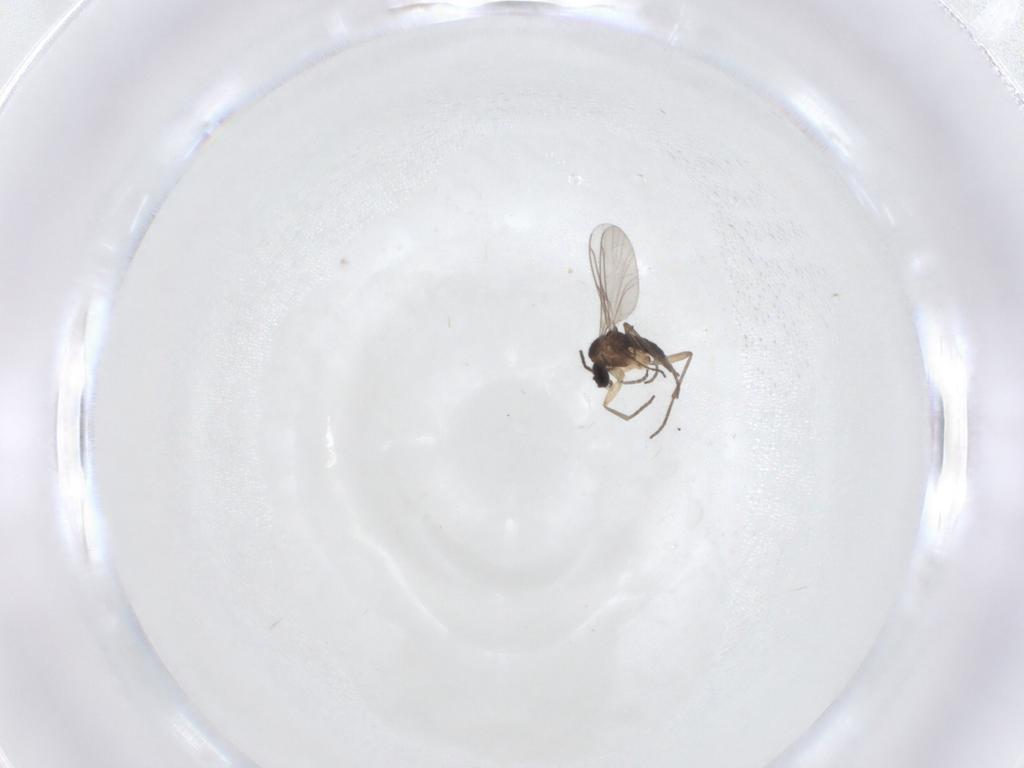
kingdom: Animalia
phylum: Arthropoda
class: Insecta
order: Diptera
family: Sciaridae
